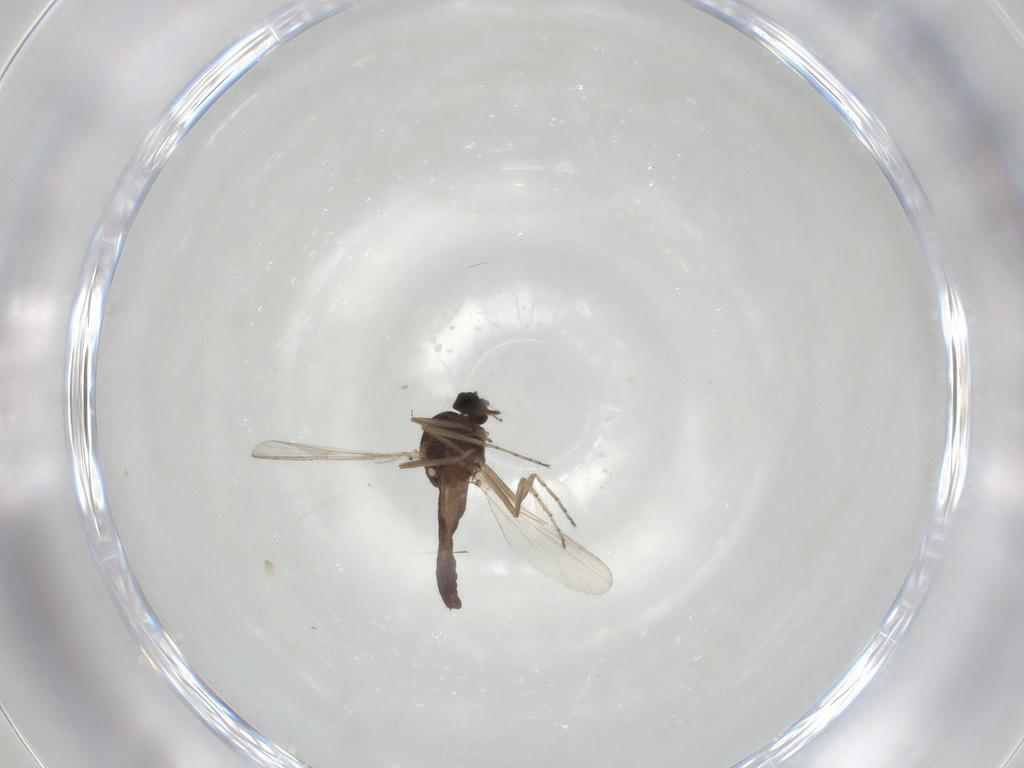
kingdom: Animalia
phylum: Arthropoda
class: Insecta
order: Diptera
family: Ceratopogonidae
